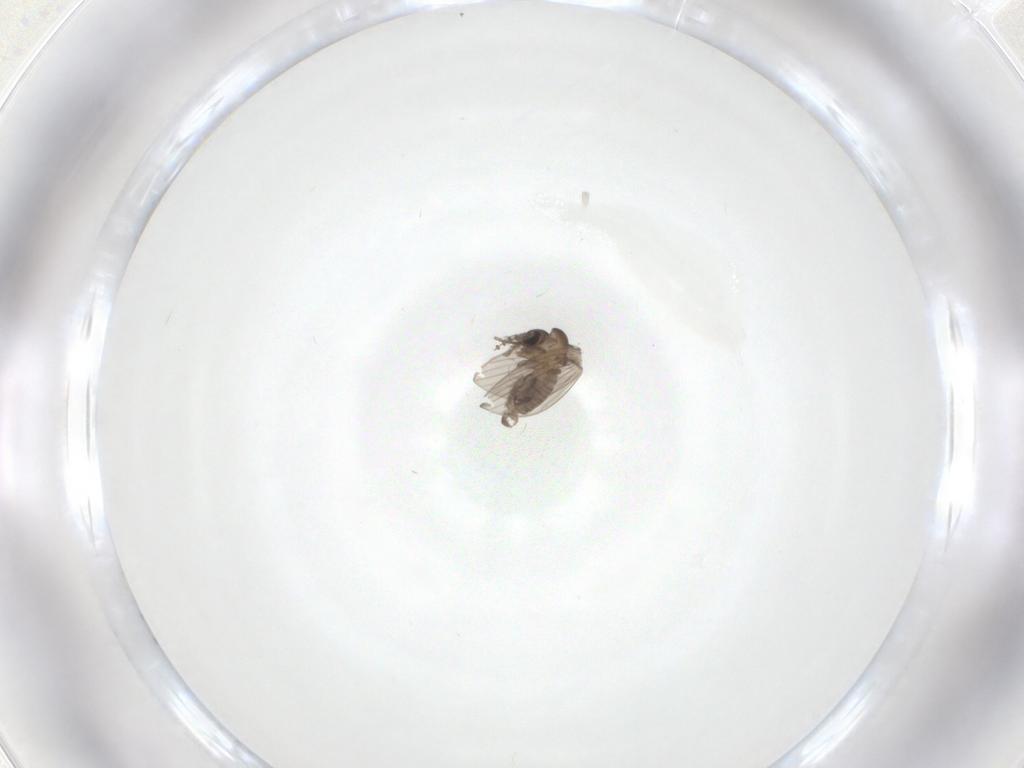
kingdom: Animalia
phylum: Arthropoda
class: Insecta
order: Diptera
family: Psychodidae
